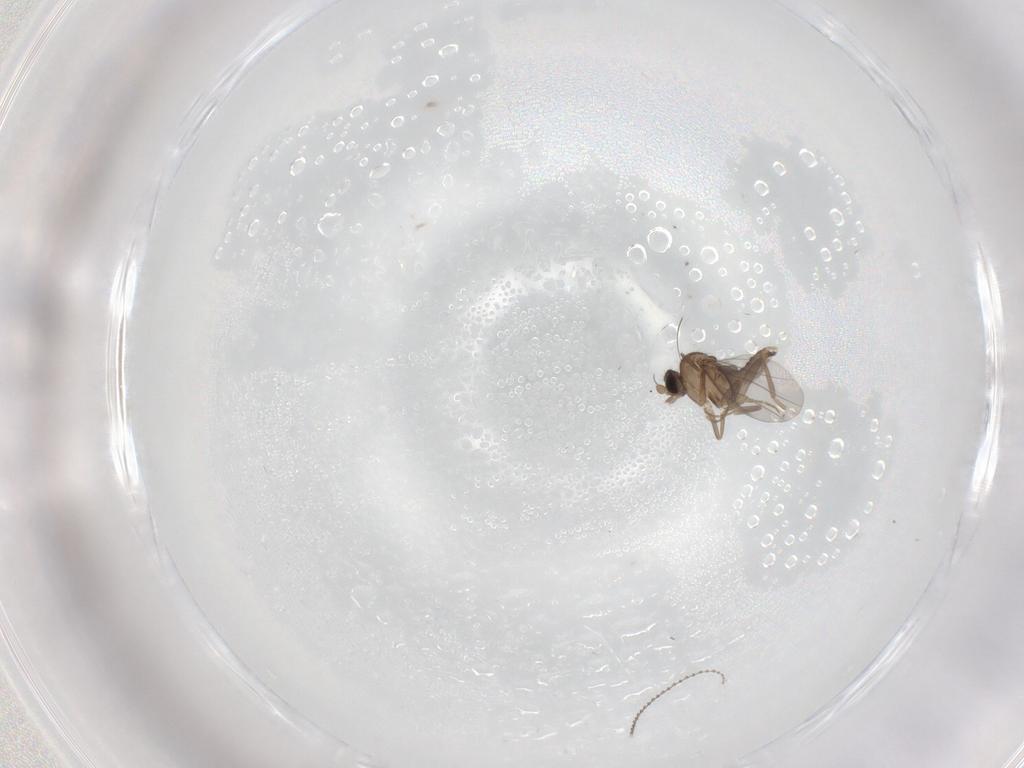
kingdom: Animalia
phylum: Arthropoda
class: Insecta
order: Diptera
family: Cecidomyiidae
